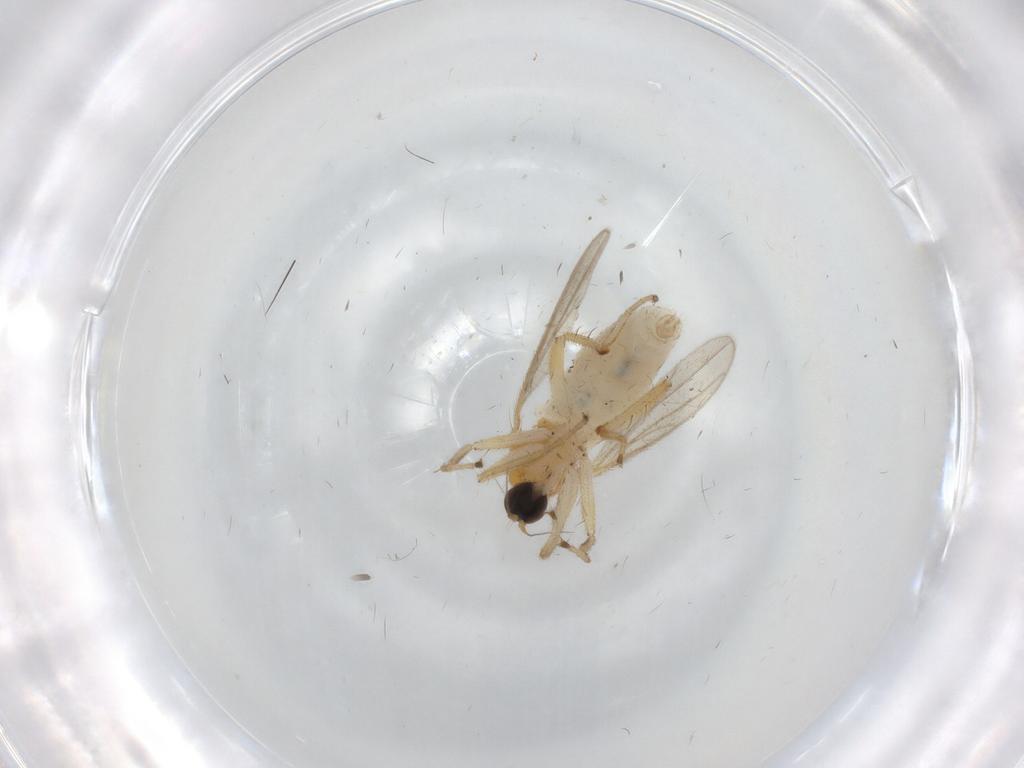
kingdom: Animalia
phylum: Arthropoda
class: Insecta
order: Diptera
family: Hybotidae
